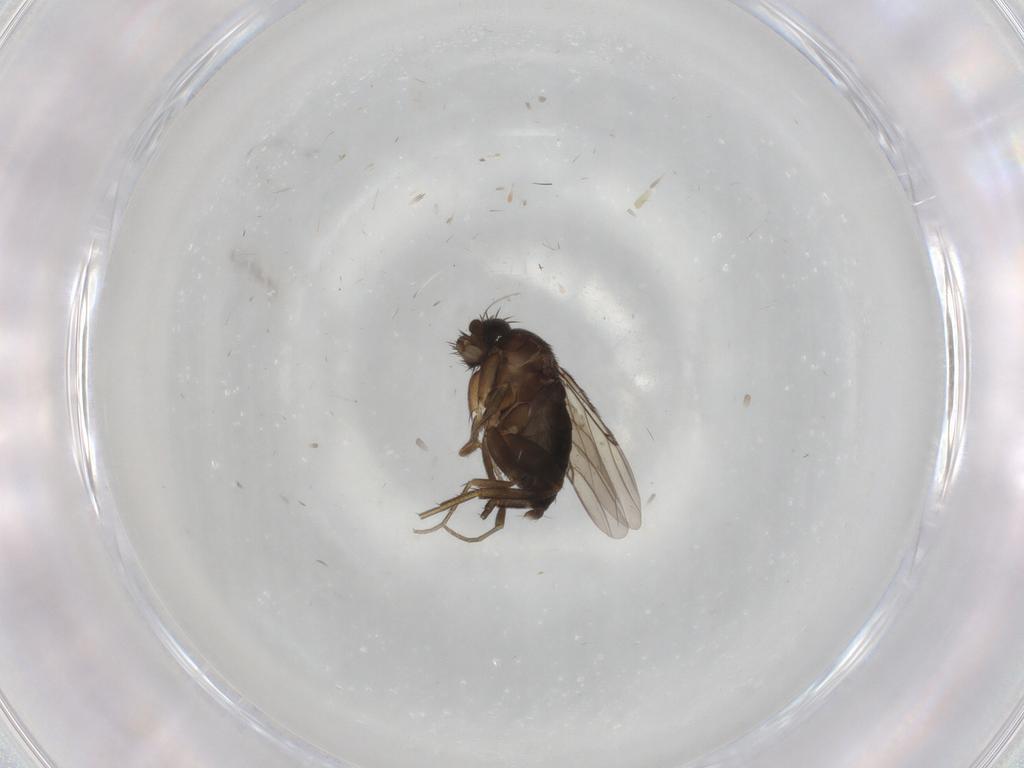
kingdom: Animalia
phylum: Arthropoda
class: Insecta
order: Diptera
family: Phoridae
